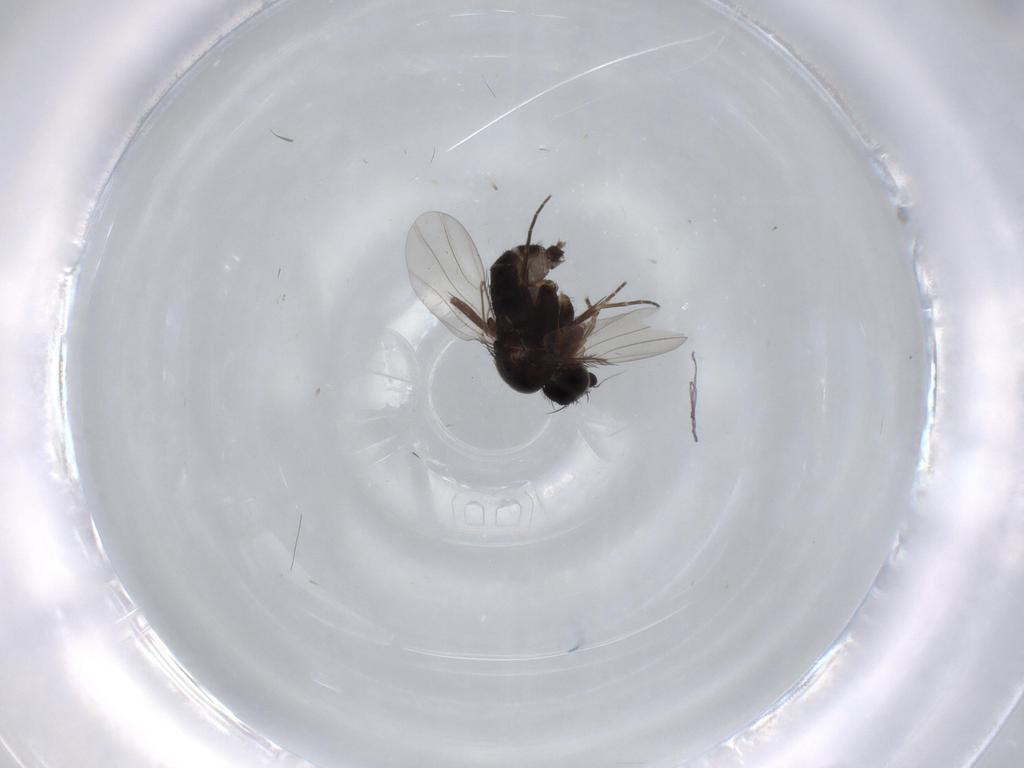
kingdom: Animalia
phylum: Arthropoda
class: Insecta
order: Diptera
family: Phoridae
